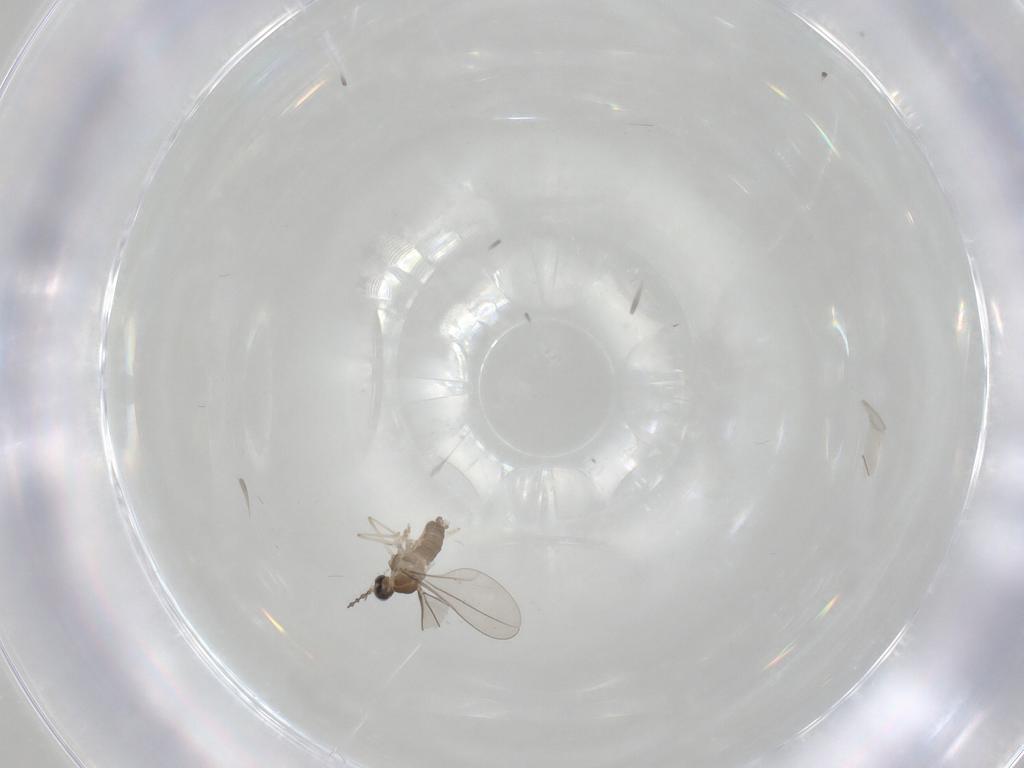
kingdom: Animalia
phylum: Arthropoda
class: Insecta
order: Diptera
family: Cecidomyiidae
